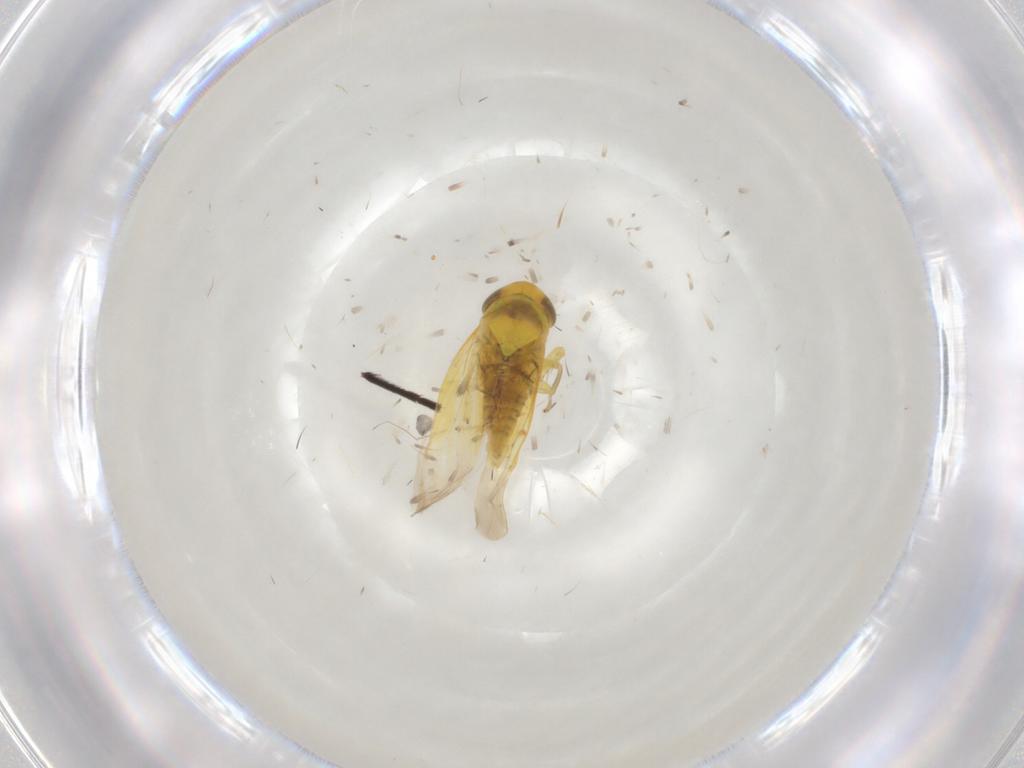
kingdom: Animalia
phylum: Arthropoda
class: Insecta
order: Hemiptera
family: Cicadellidae
